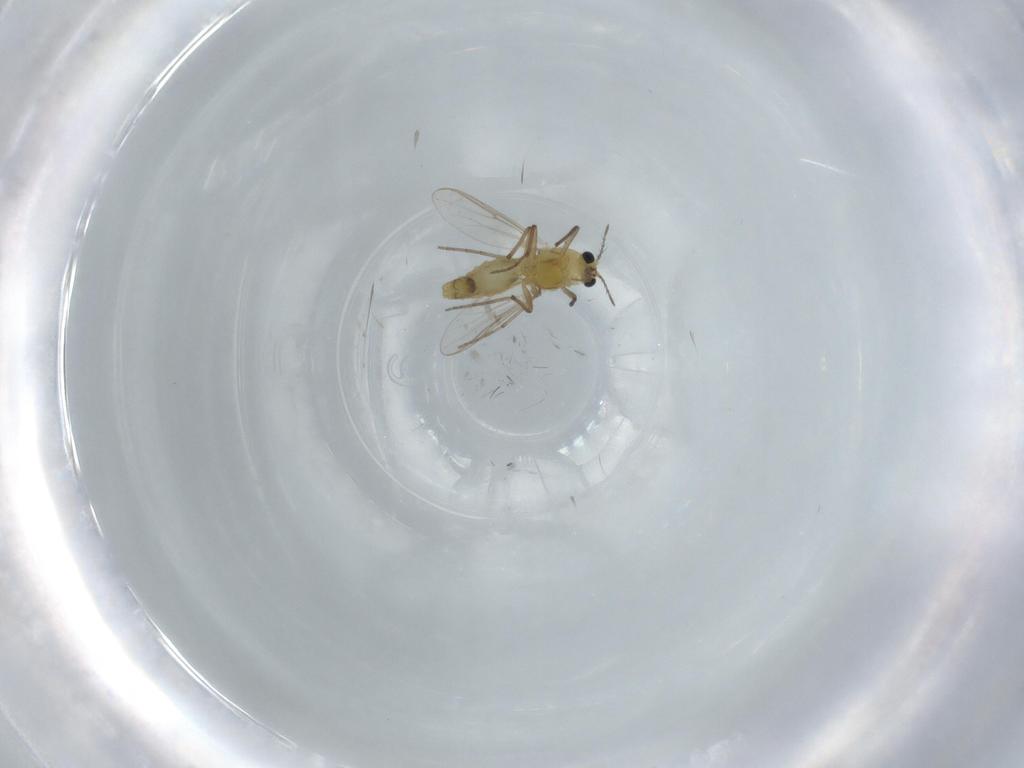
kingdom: Animalia
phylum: Arthropoda
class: Insecta
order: Diptera
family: Chironomidae
